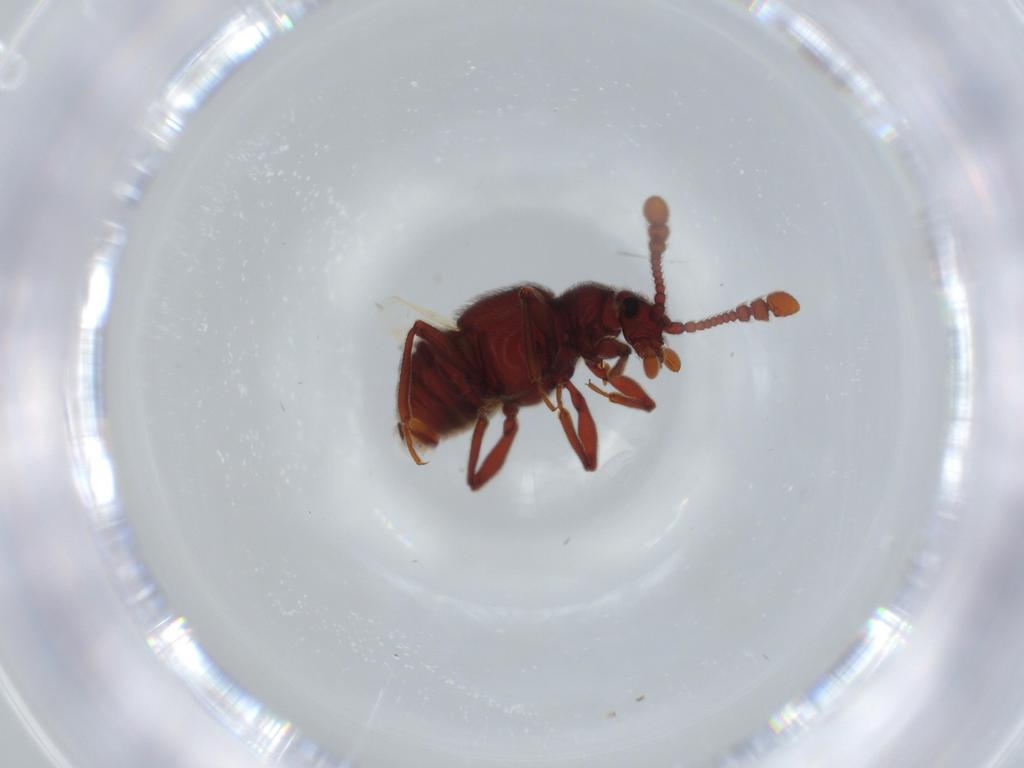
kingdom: Animalia
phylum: Arthropoda
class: Insecta
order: Coleoptera
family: Staphylinidae
